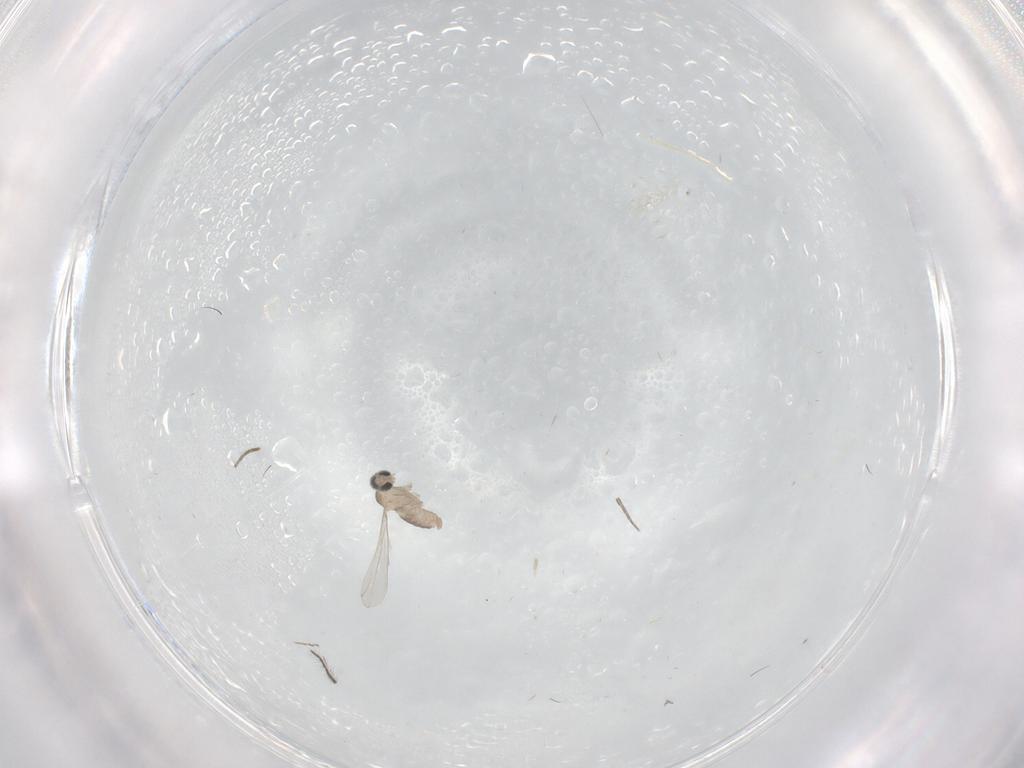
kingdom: Animalia
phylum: Arthropoda
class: Insecta
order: Diptera
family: Cecidomyiidae
